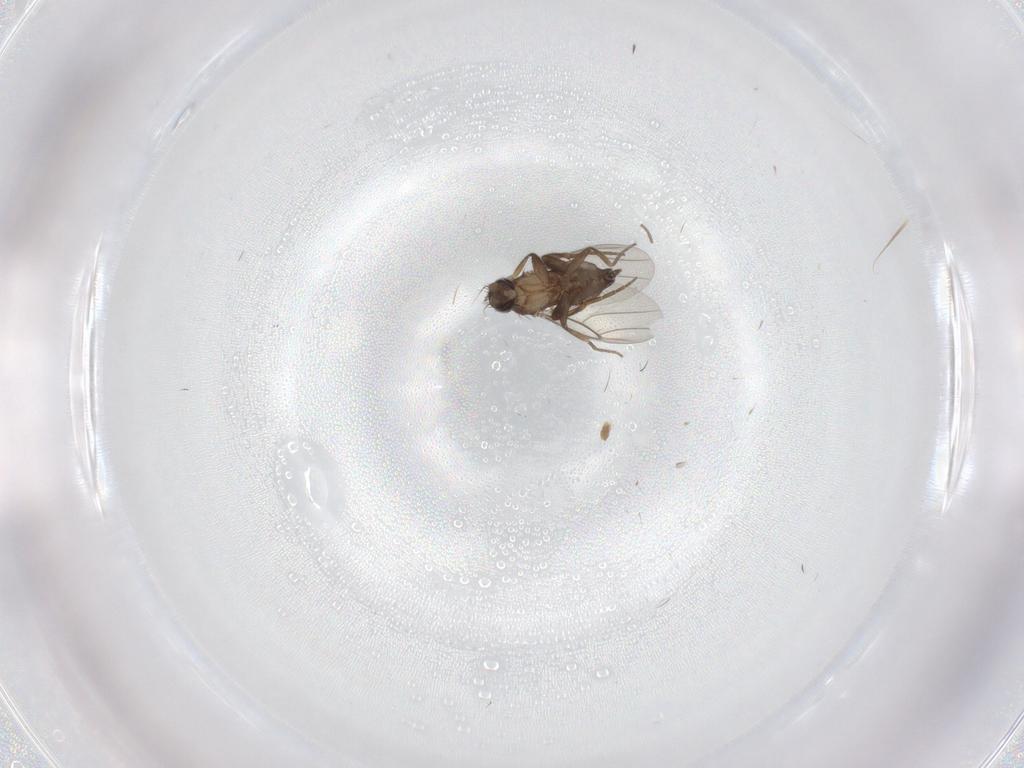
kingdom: Animalia
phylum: Arthropoda
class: Insecta
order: Diptera
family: Phoridae
